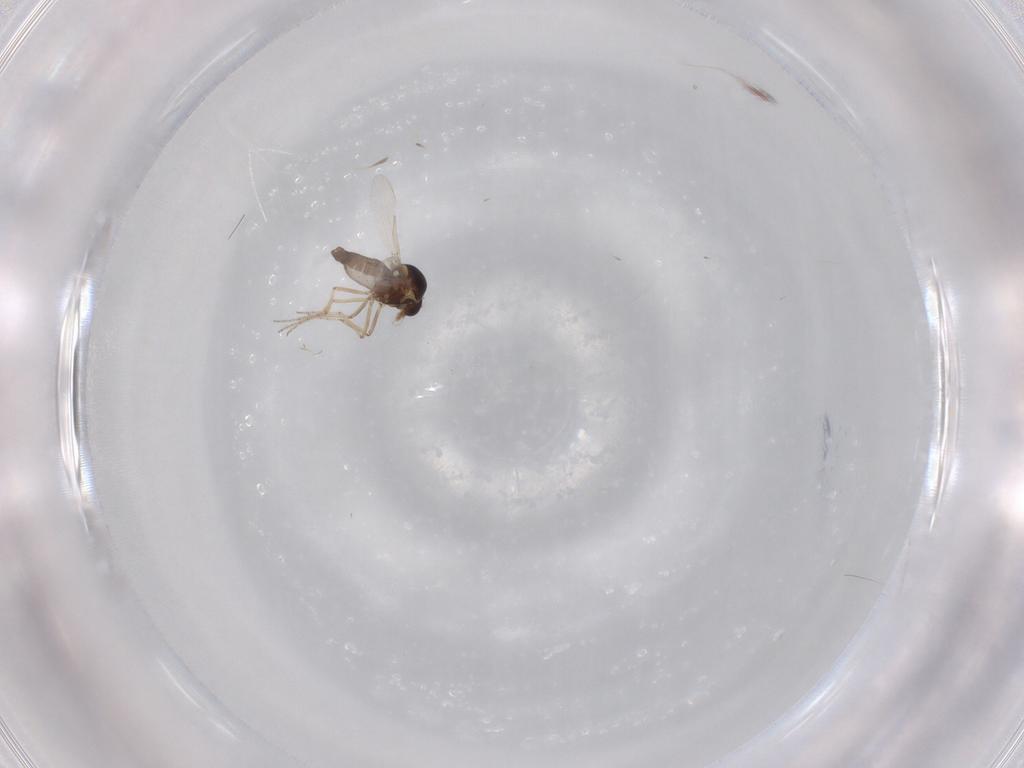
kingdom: Animalia
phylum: Arthropoda
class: Insecta
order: Diptera
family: Ceratopogonidae
